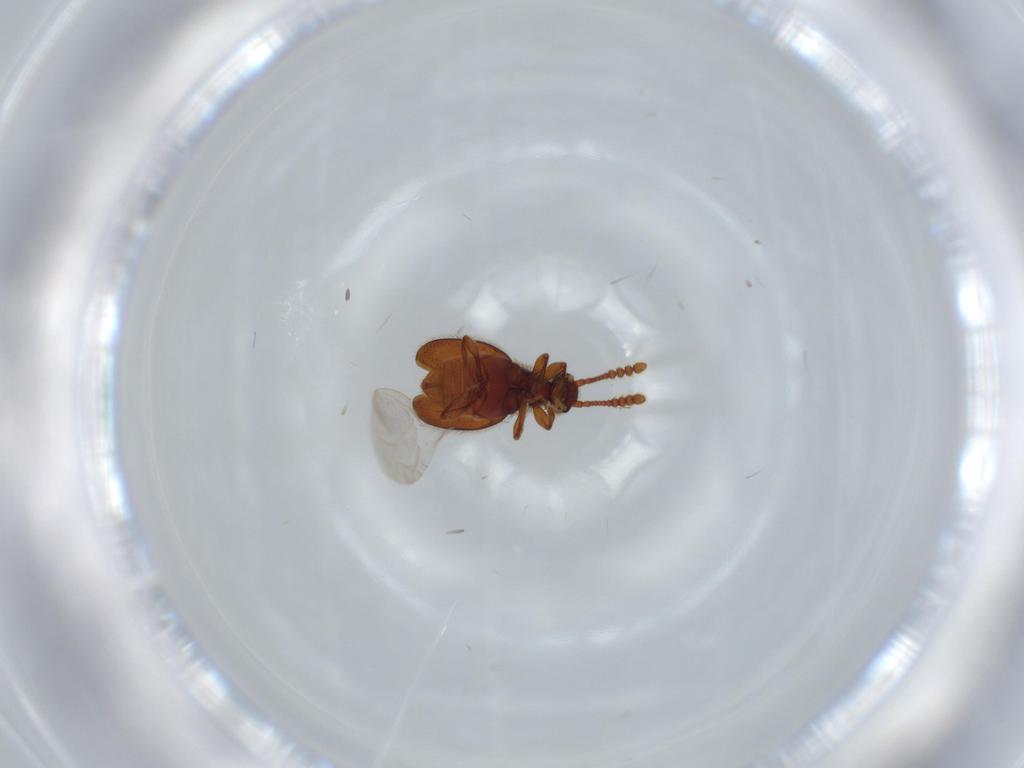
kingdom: Animalia
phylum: Arthropoda
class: Insecta
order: Coleoptera
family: Staphylinidae
